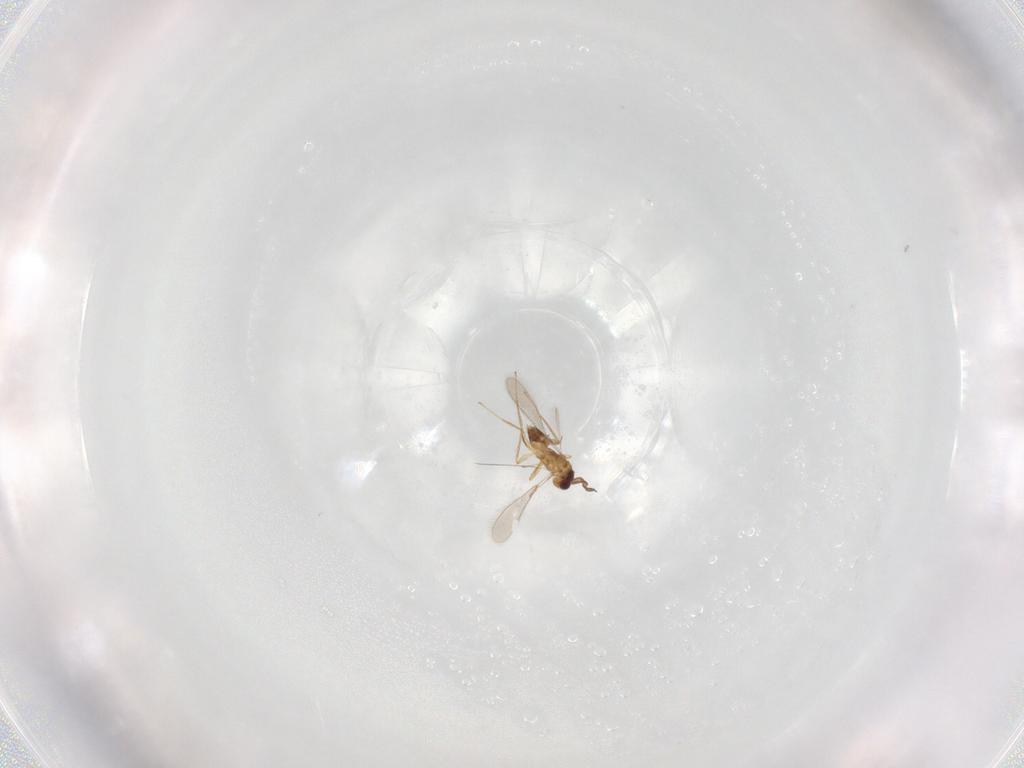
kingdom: Animalia
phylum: Arthropoda
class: Insecta
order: Hymenoptera
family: Mymaridae
